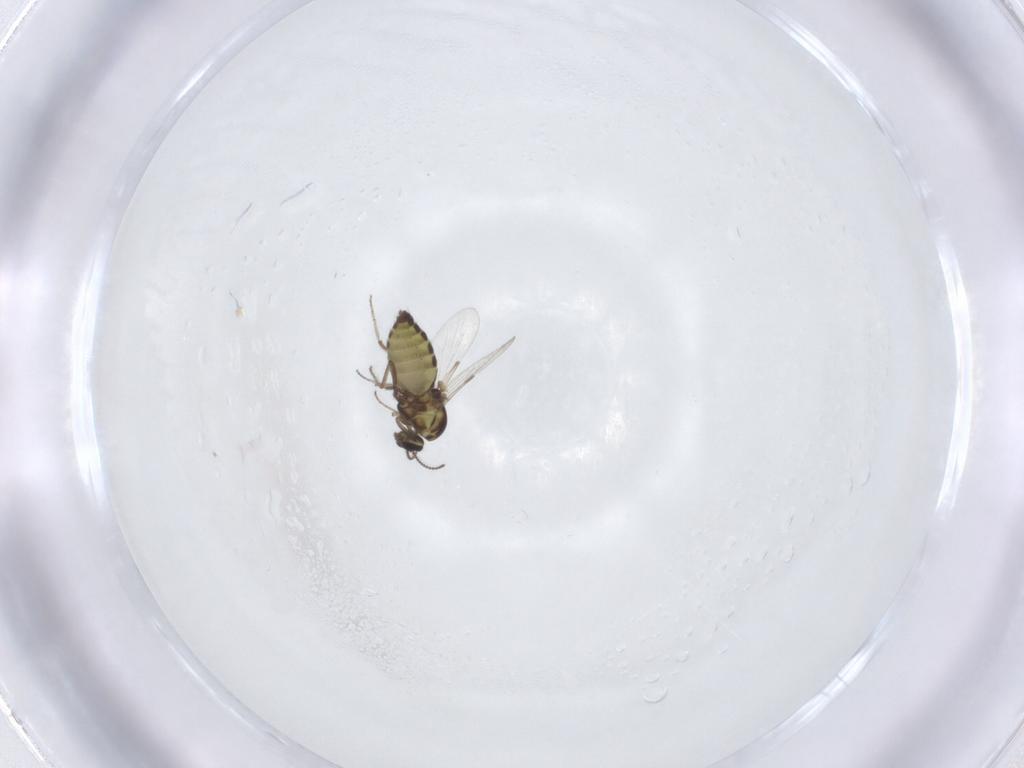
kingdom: Animalia
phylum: Arthropoda
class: Insecta
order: Diptera
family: Ceratopogonidae
